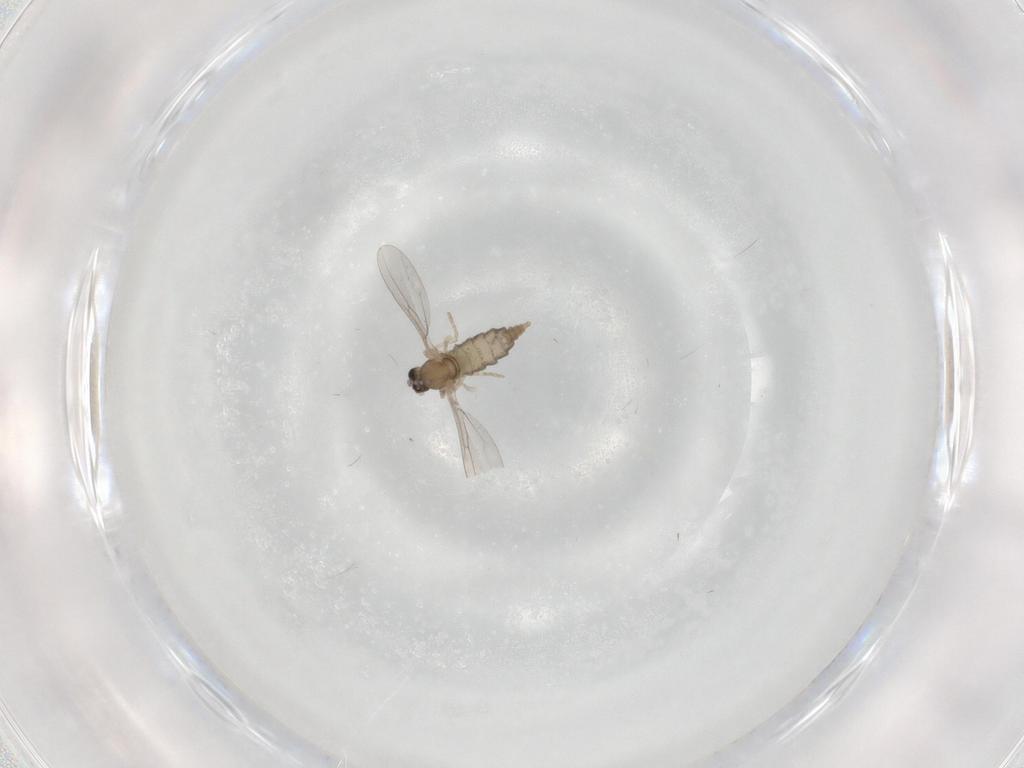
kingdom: Animalia
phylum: Arthropoda
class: Insecta
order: Diptera
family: Cecidomyiidae
